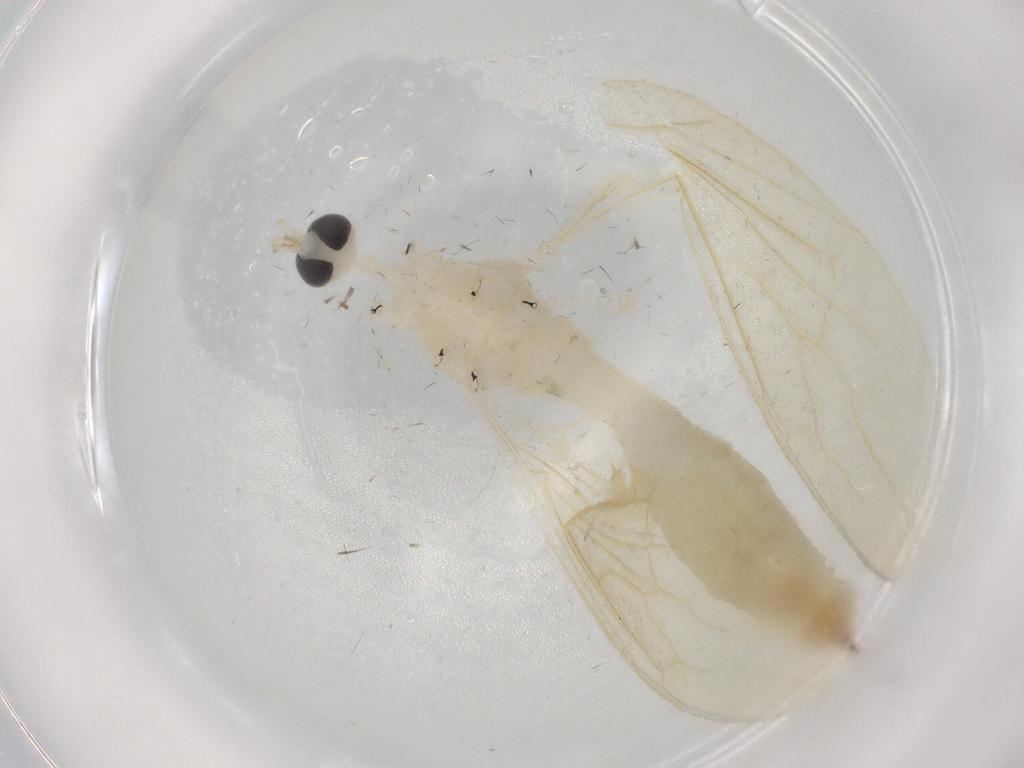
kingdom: Animalia
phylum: Arthropoda
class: Insecta
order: Diptera
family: Limoniidae
